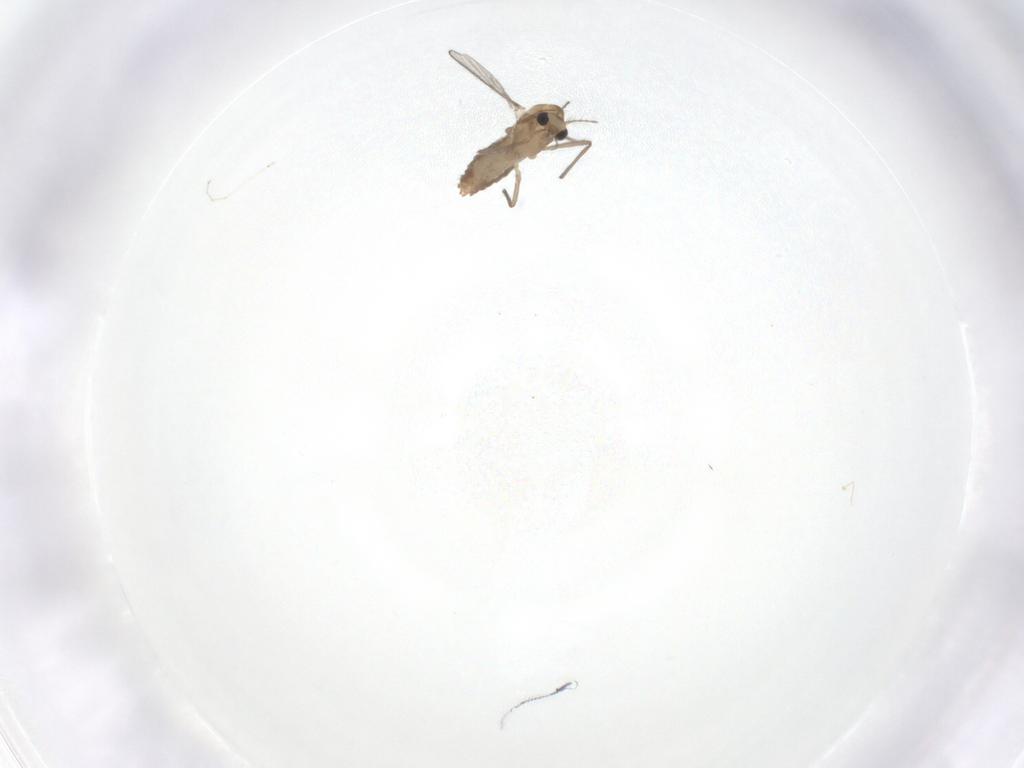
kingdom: Animalia
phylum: Arthropoda
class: Insecta
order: Diptera
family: Chironomidae
